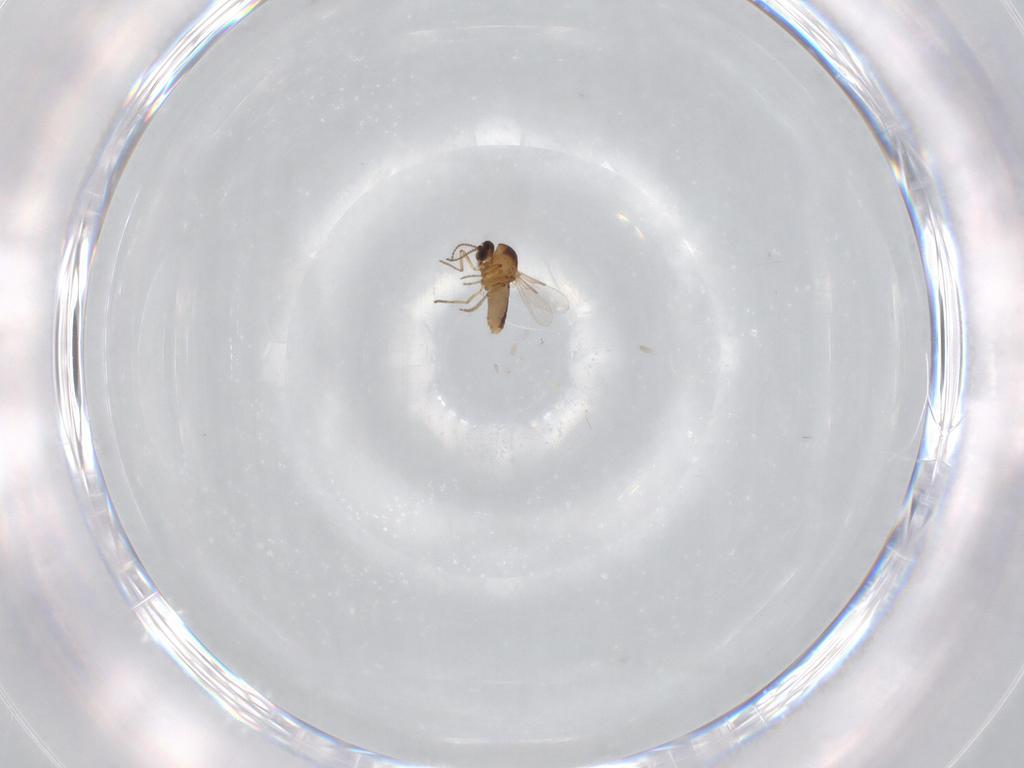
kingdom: Animalia
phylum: Arthropoda
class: Insecta
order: Diptera
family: Ceratopogonidae
